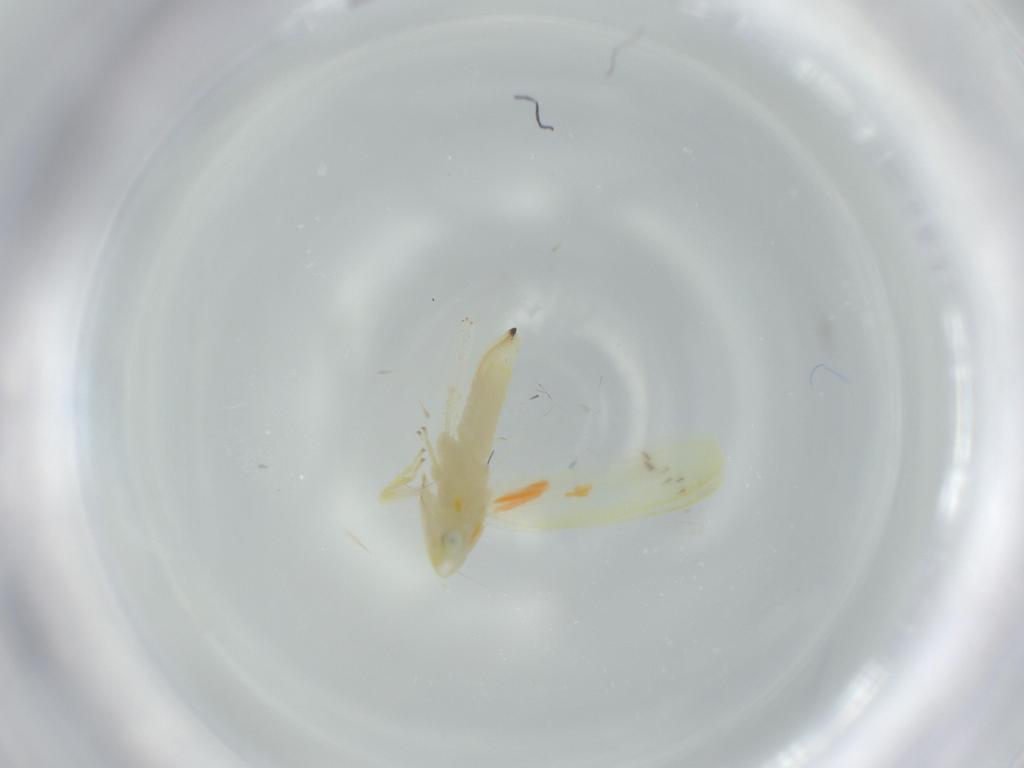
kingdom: Animalia
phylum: Arthropoda
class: Insecta
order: Hemiptera
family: Cicadellidae
